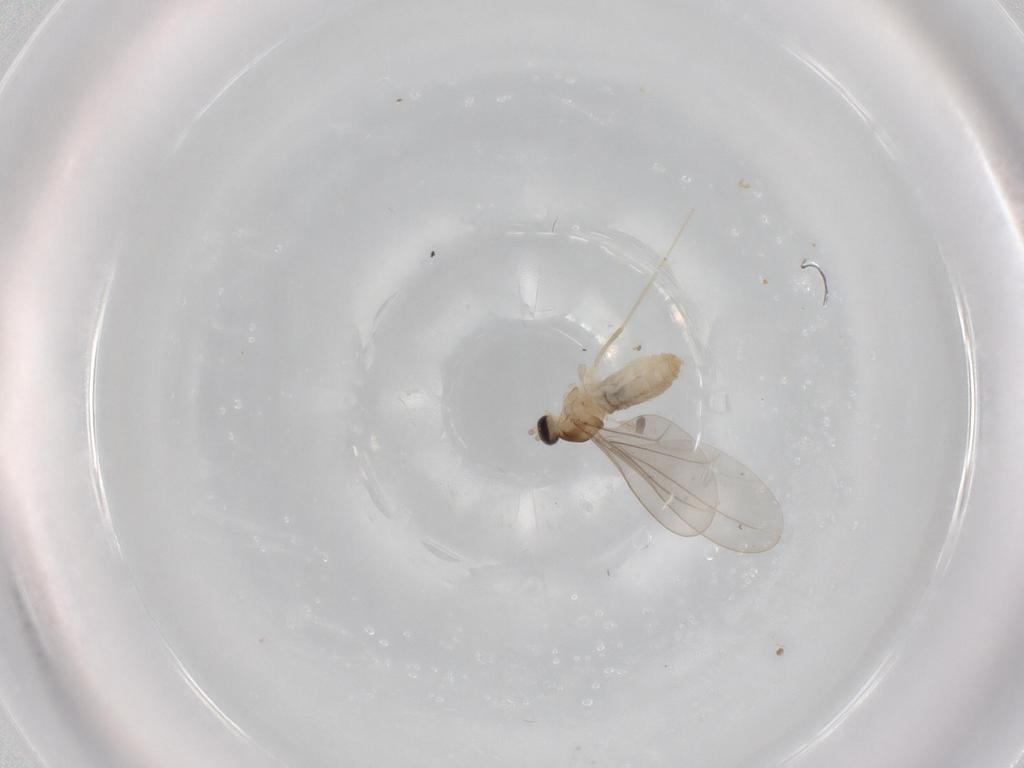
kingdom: Animalia
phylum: Arthropoda
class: Insecta
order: Diptera
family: Cecidomyiidae
